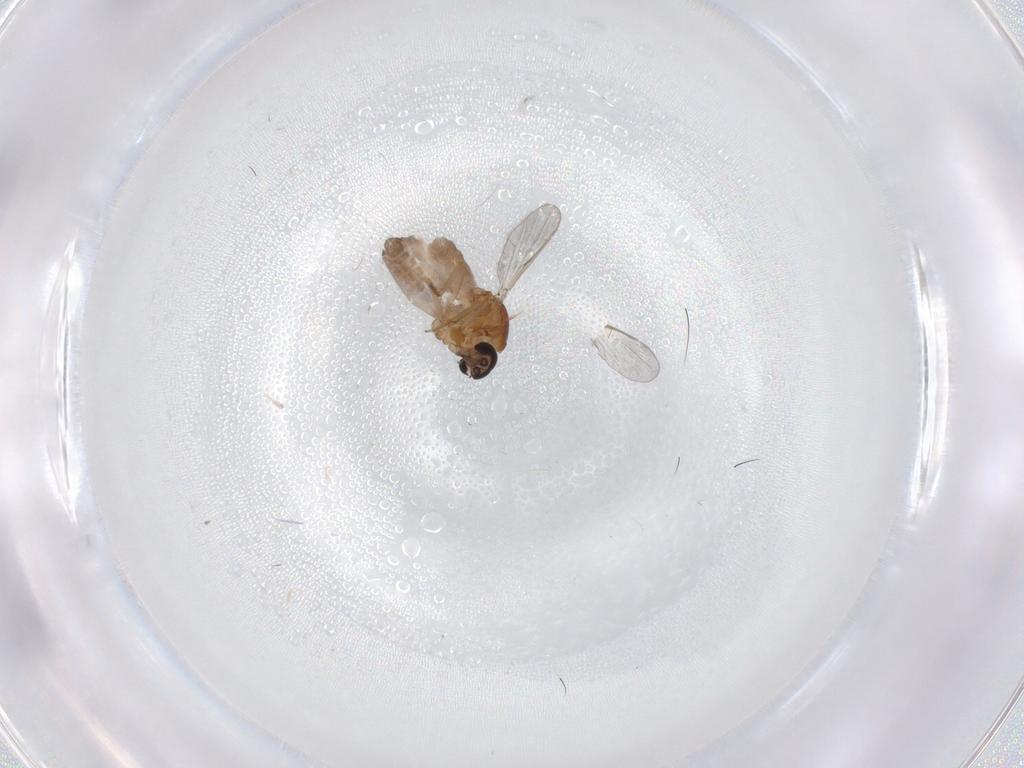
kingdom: Animalia
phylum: Arthropoda
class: Insecta
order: Diptera
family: Ceratopogonidae
